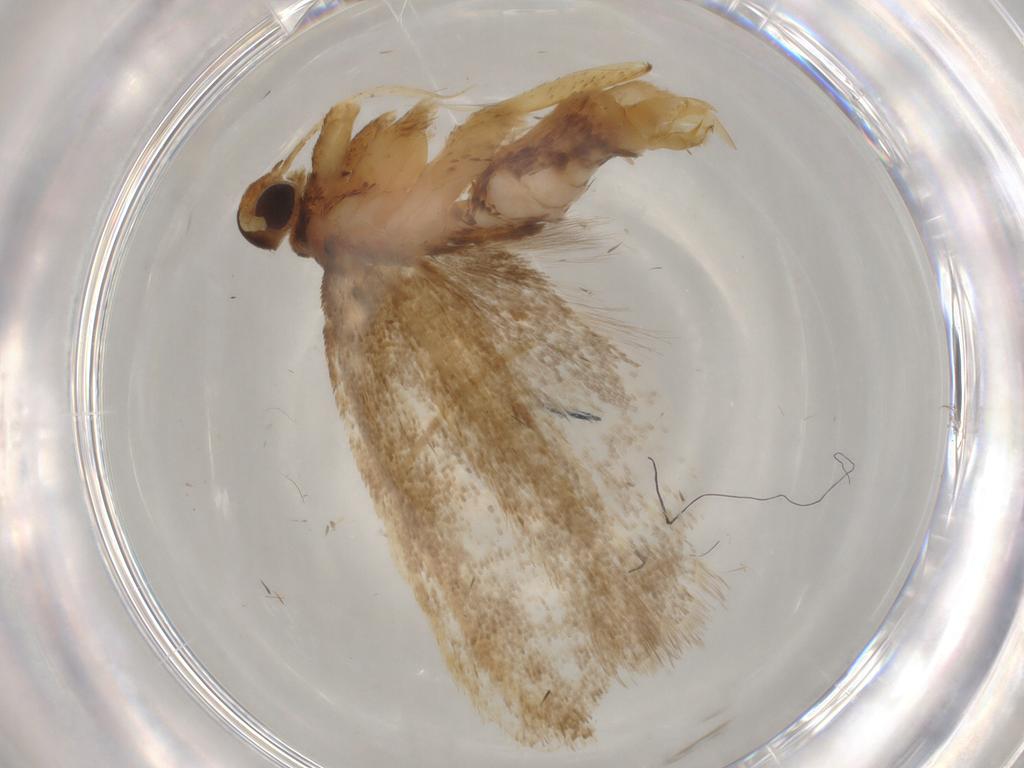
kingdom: Animalia
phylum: Arthropoda
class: Insecta
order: Lepidoptera
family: Lecithoceridae
